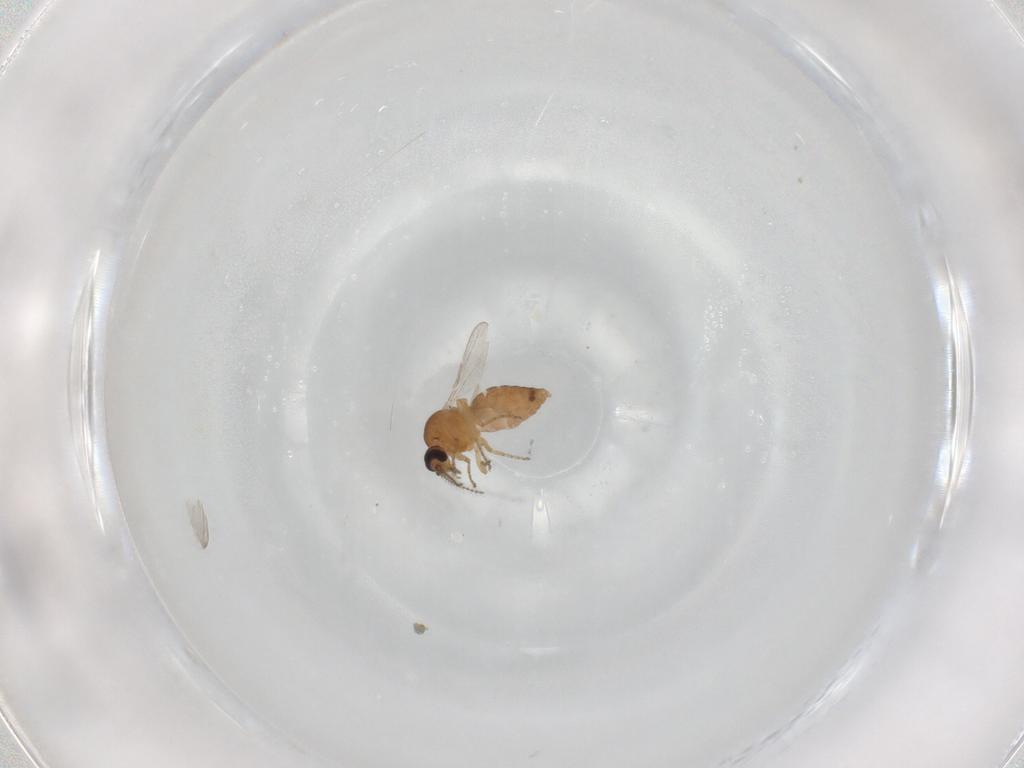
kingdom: Animalia
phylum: Arthropoda
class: Insecta
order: Diptera
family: Ceratopogonidae
